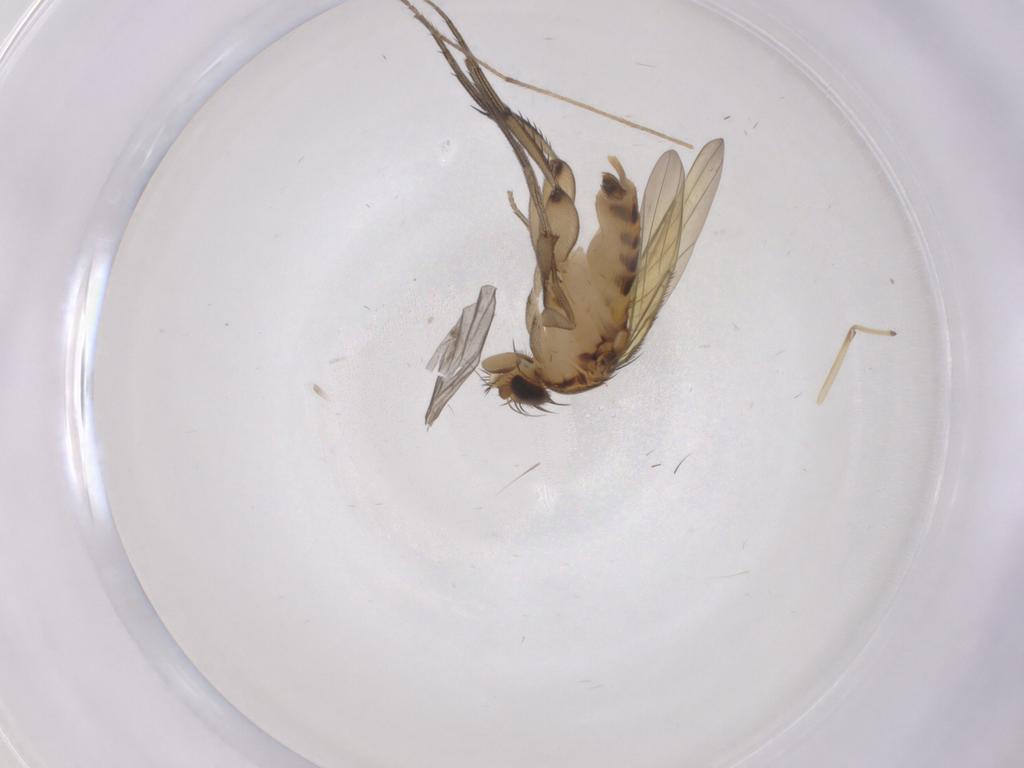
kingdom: Animalia
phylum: Arthropoda
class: Insecta
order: Diptera
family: Phoridae
